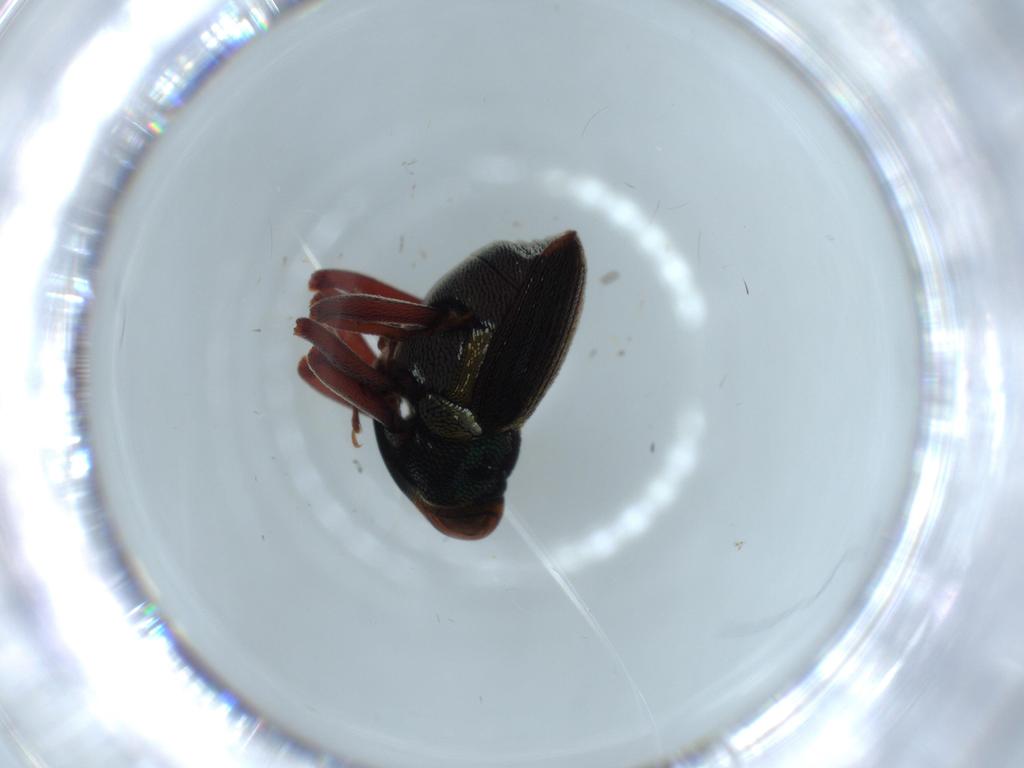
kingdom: Animalia
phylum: Arthropoda
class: Insecta
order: Coleoptera
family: Curculionidae
